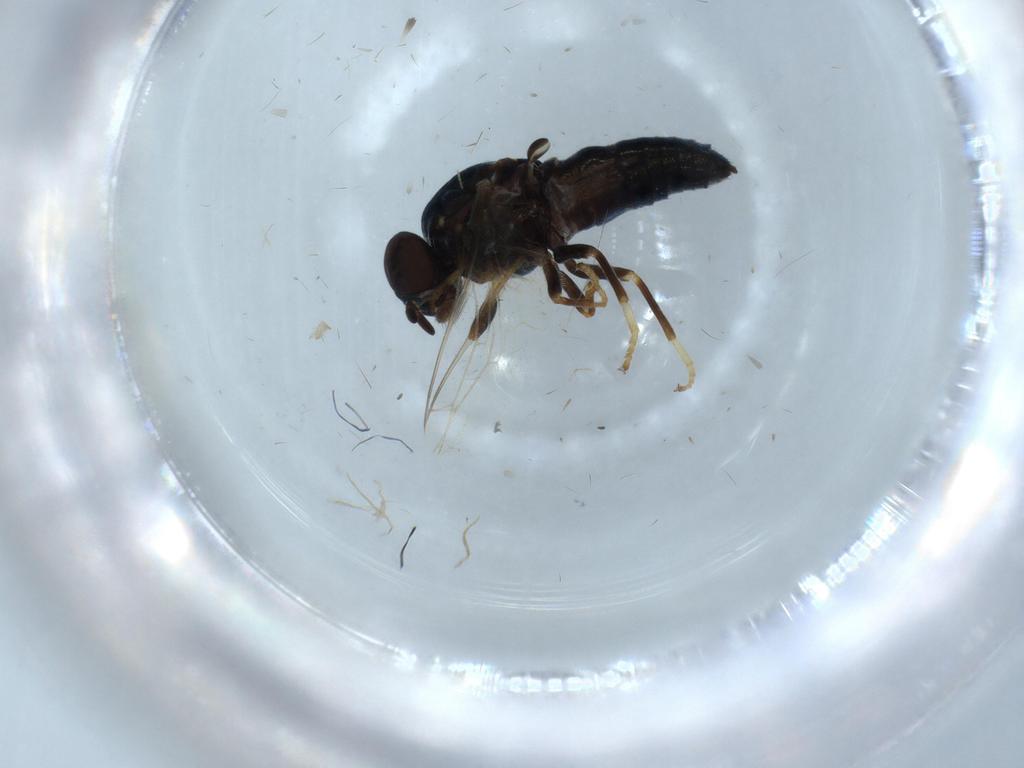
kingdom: Animalia
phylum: Arthropoda
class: Insecta
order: Diptera
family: Scenopinidae
